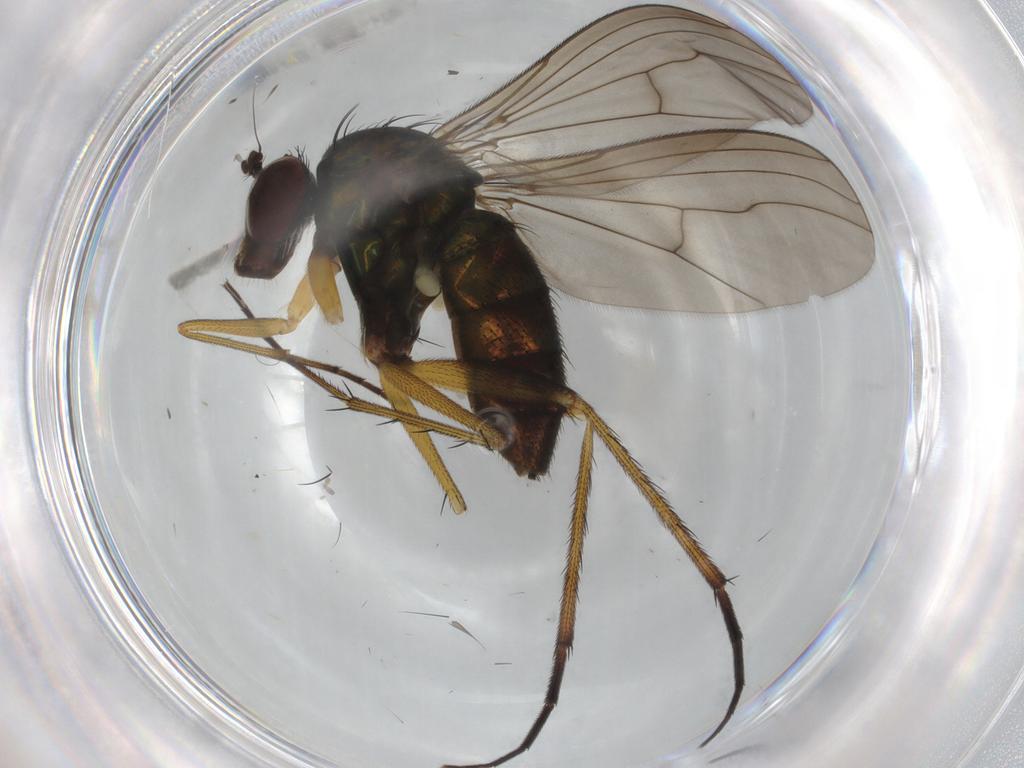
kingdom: Animalia
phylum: Arthropoda
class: Insecta
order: Diptera
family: Dolichopodidae
